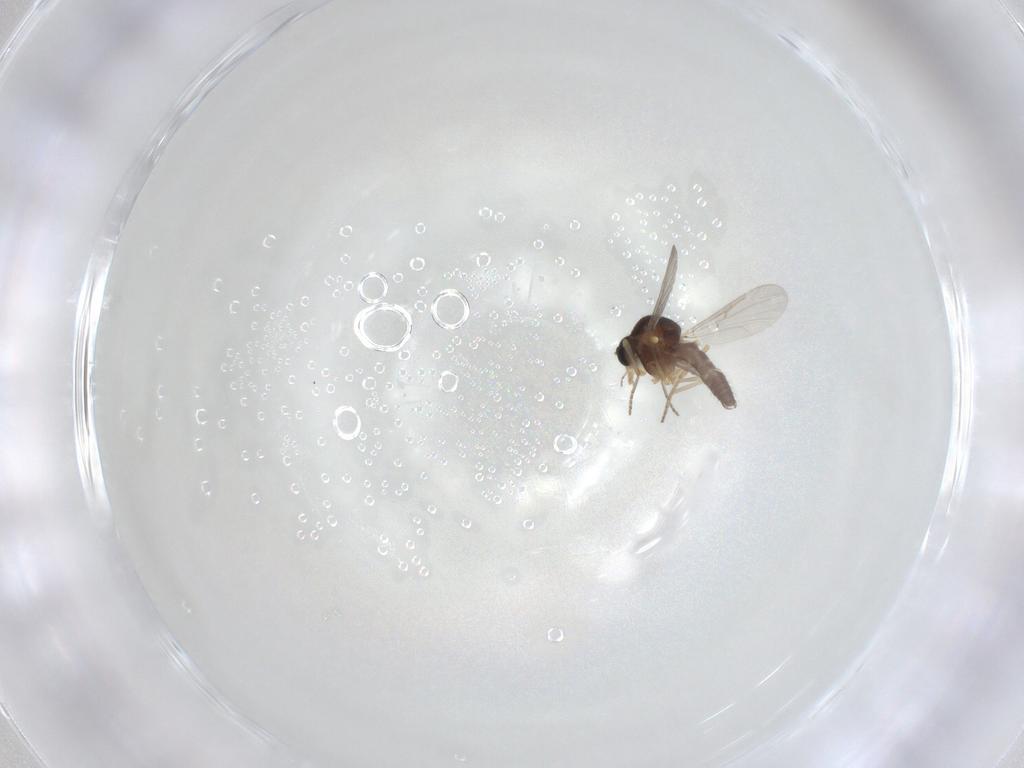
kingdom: Animalia
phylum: Arthropoda
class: Insecta
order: Diptera
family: Ceratopogonidae
